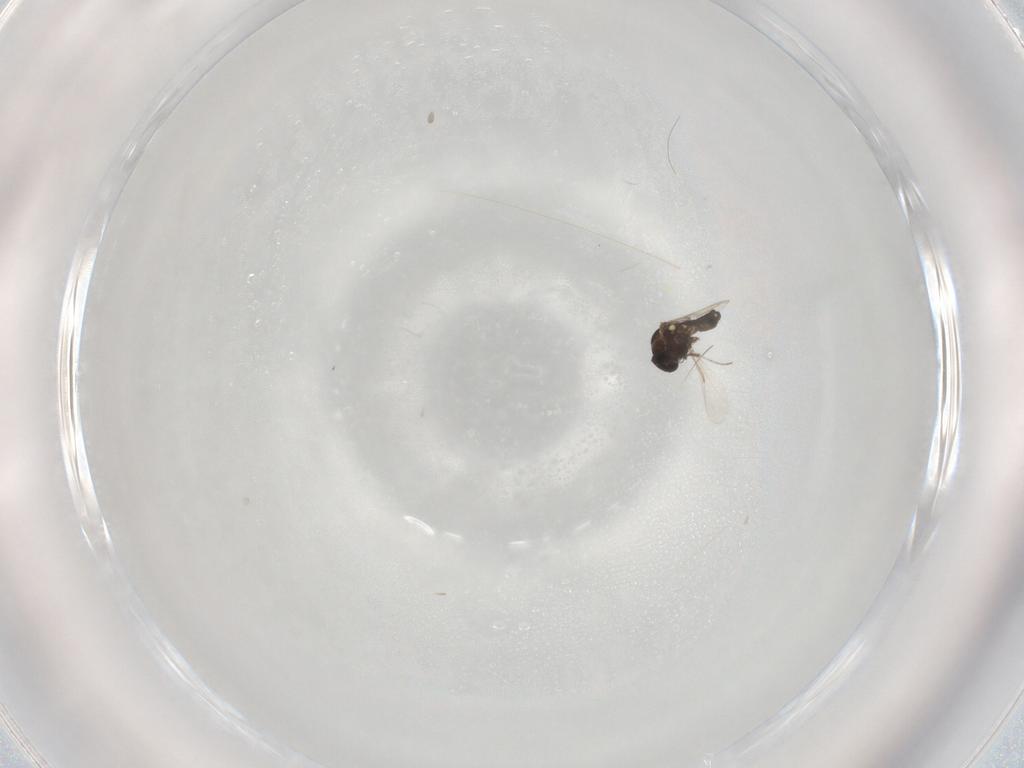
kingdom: Animalia
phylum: Arthropoda
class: Insecta
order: Diptera
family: Ceratopogonidae
